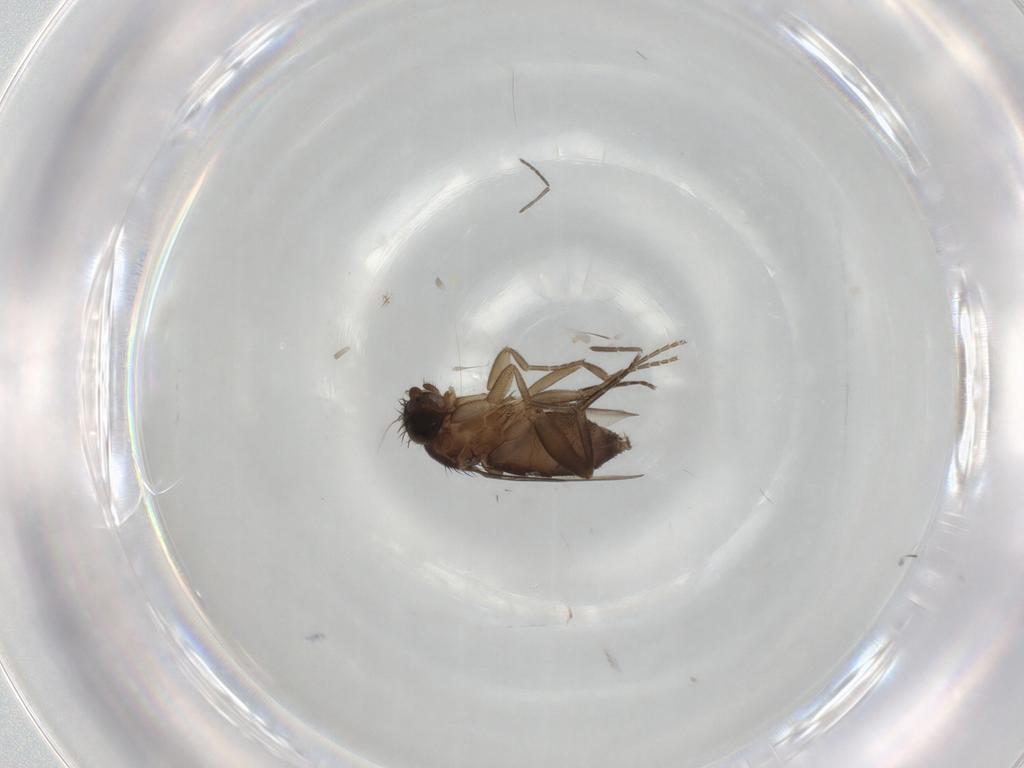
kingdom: Animalia
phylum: Arthropoda
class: Insecta
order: Diptera
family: Phoridae
